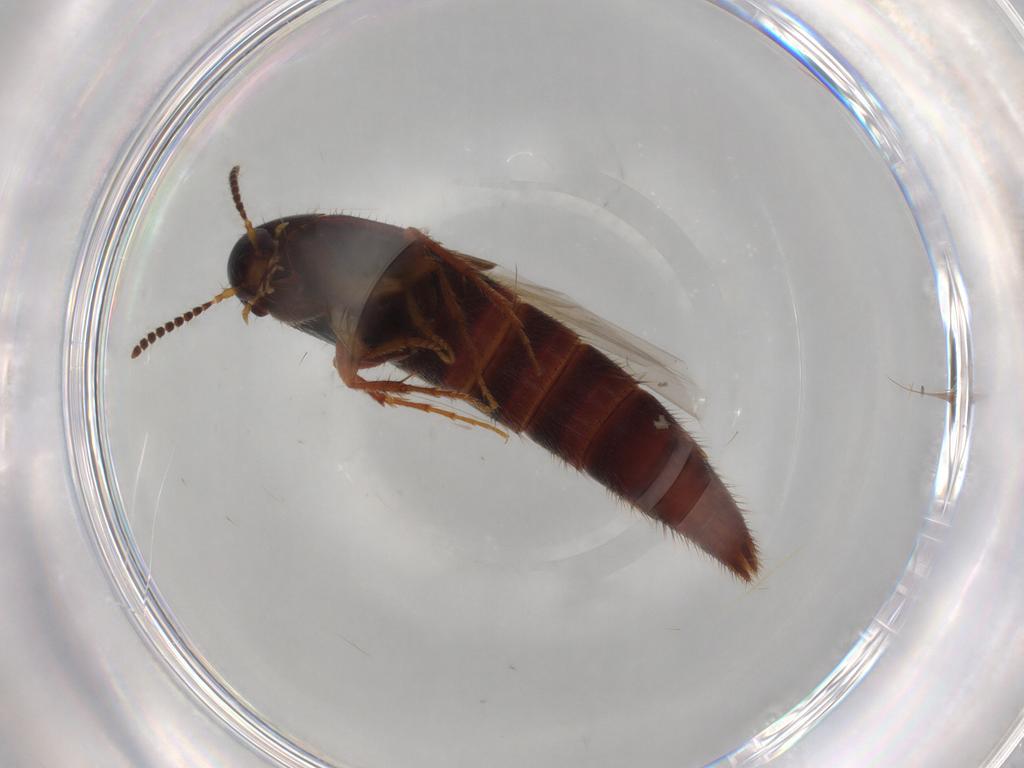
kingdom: Animalia
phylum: Arthropoda
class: Insecta
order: Coleoptera
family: Staphylinidae
